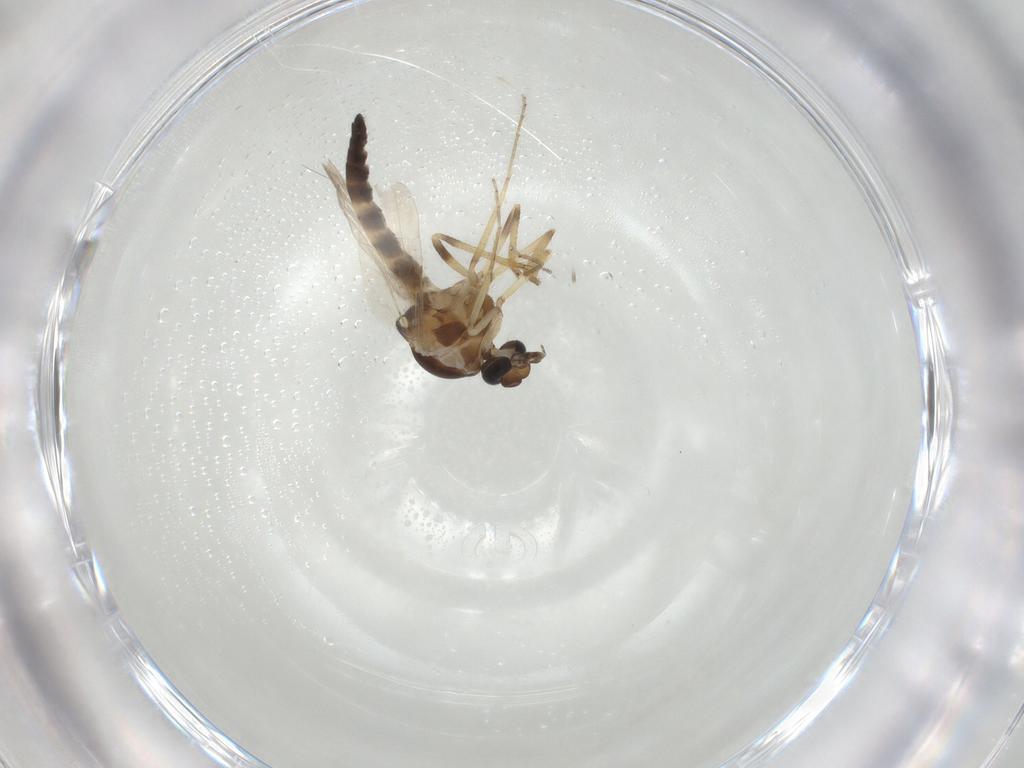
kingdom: Animalia
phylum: Arthropoda
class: Insecta
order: Diptera
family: Ceratopogonidae
